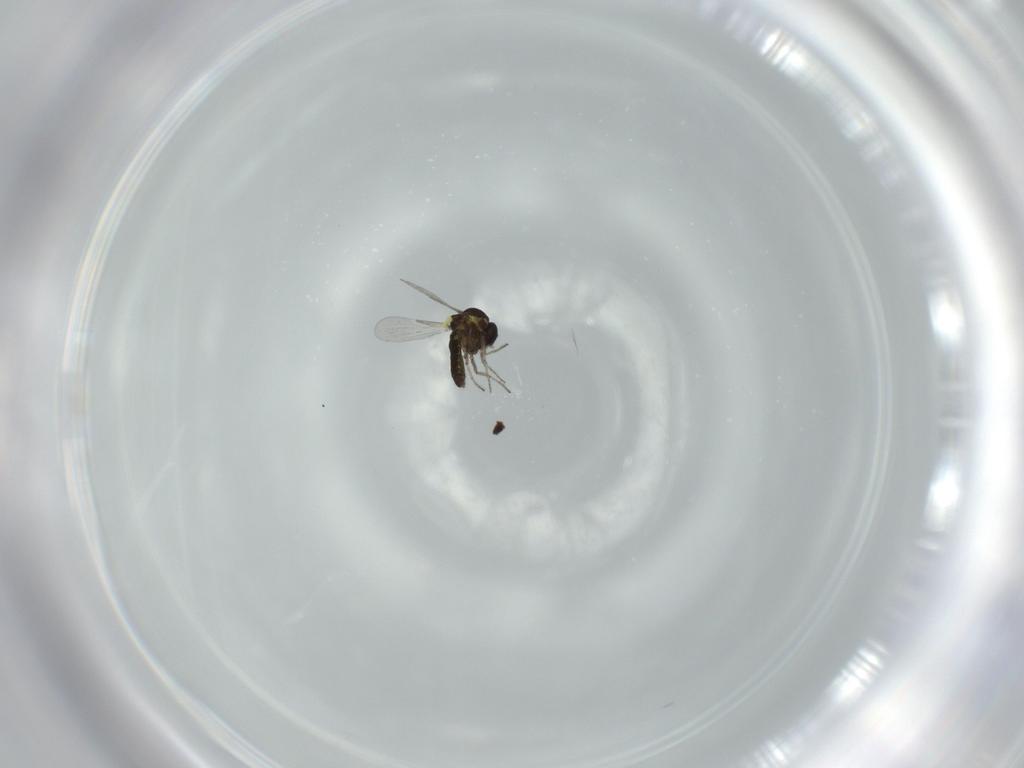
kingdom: Animalia
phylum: Arthropoda
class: Insecta
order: Diptera
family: Ceratopogonidae
